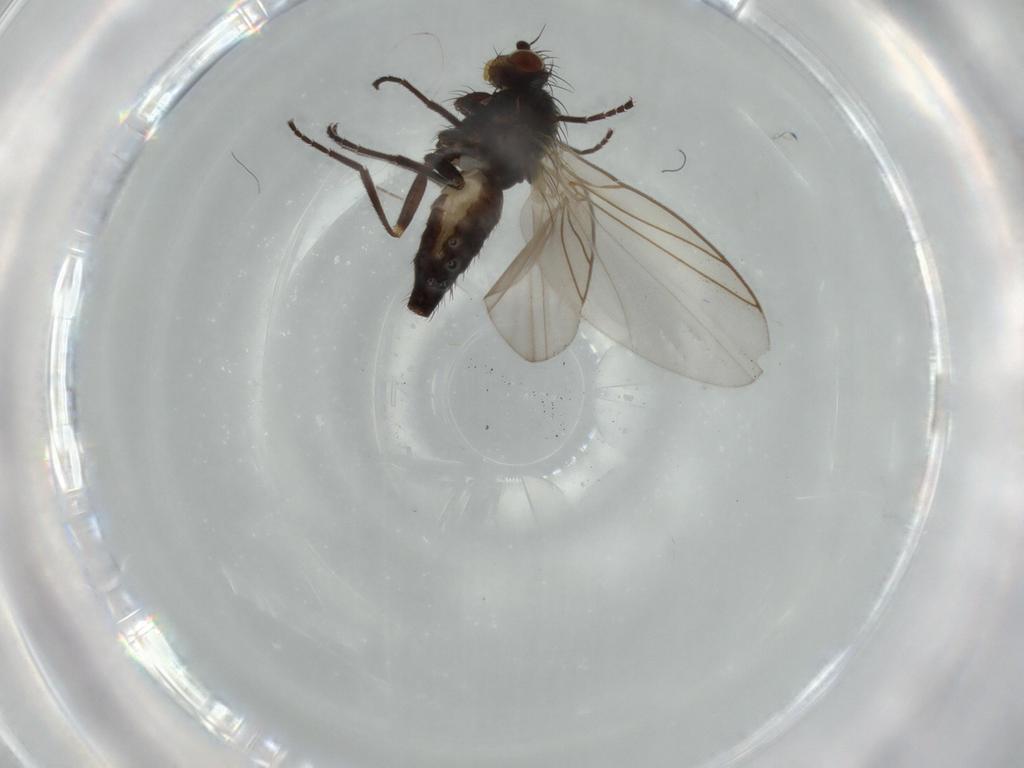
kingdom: Animalia
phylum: Arthropoda
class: Insecta
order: Diptera
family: Agromyzidae
